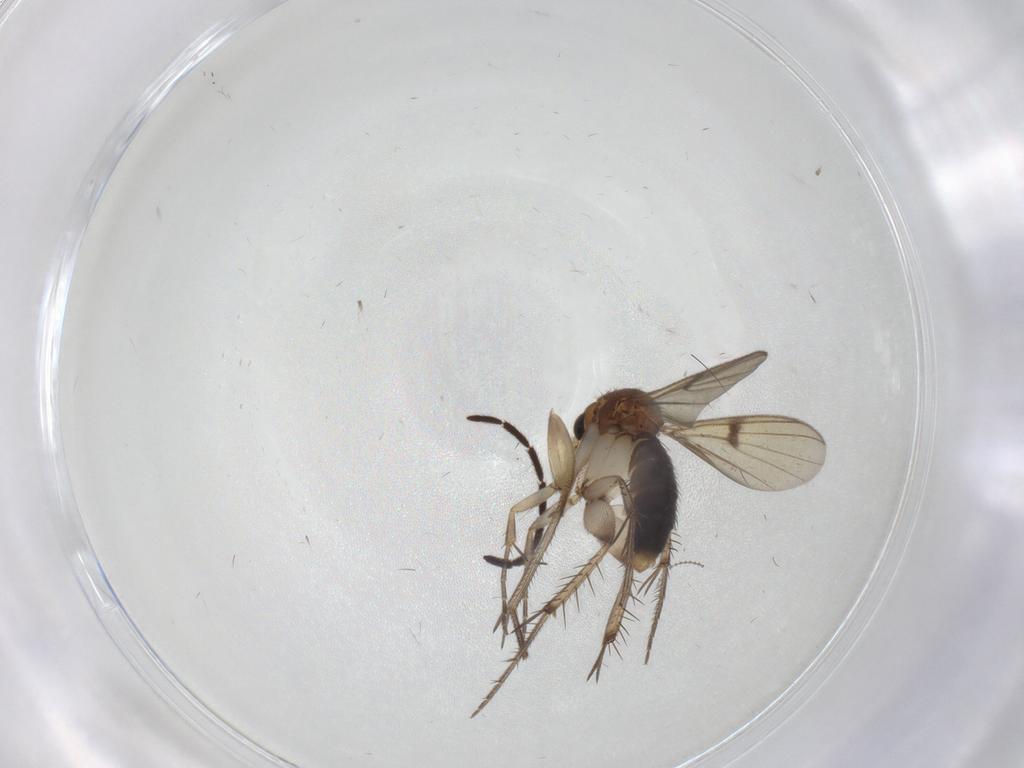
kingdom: Animalia
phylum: Arthropoda
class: Insecta
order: Diptera
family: Mycetophilidae
